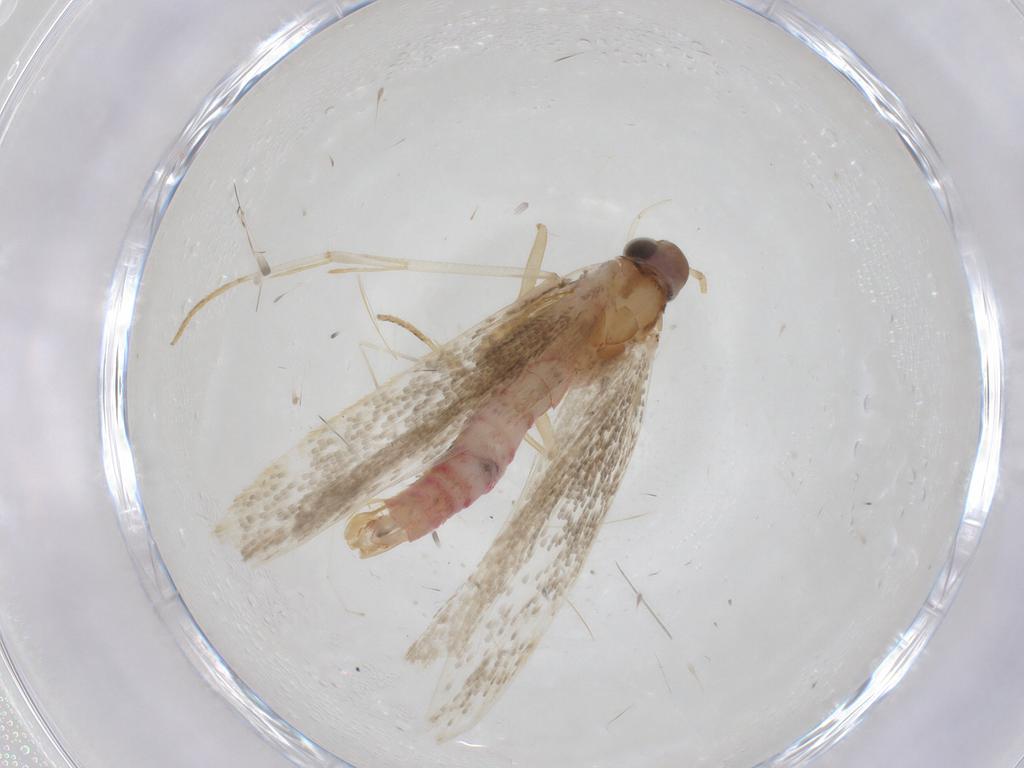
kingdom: Animalia
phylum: Arthropoda
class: Insecta
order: Lepidoptera
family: Crambidae
